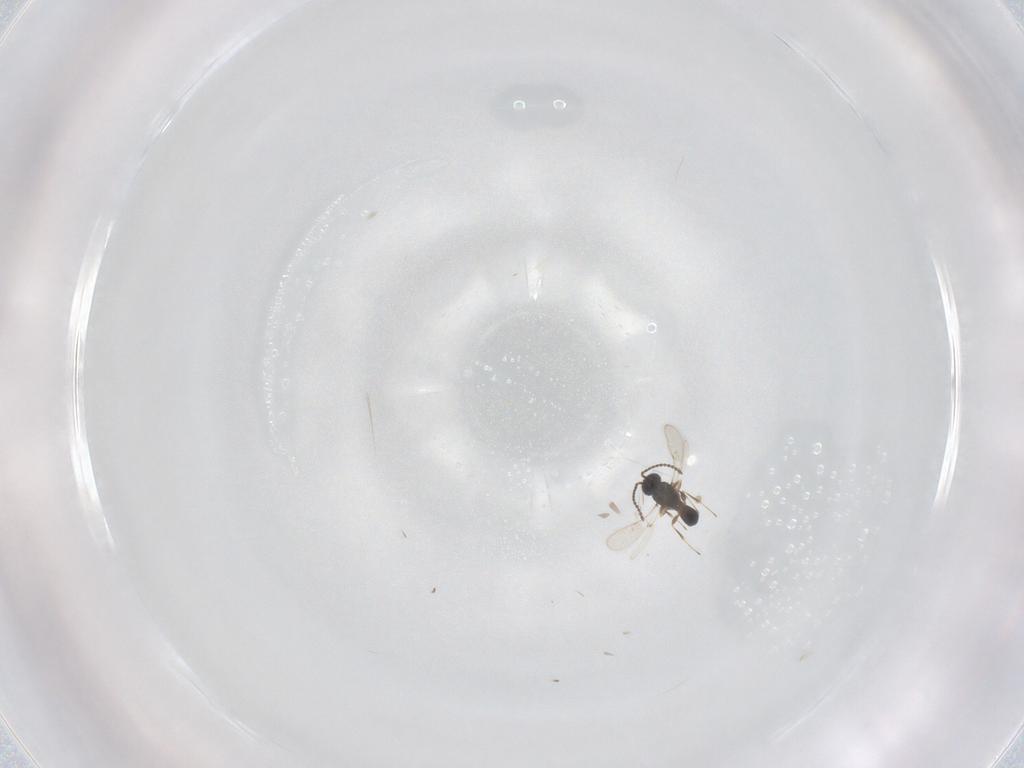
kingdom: Animalia
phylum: Arthropoda
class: Insecta
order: Hymenoptera
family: Scelionidae
